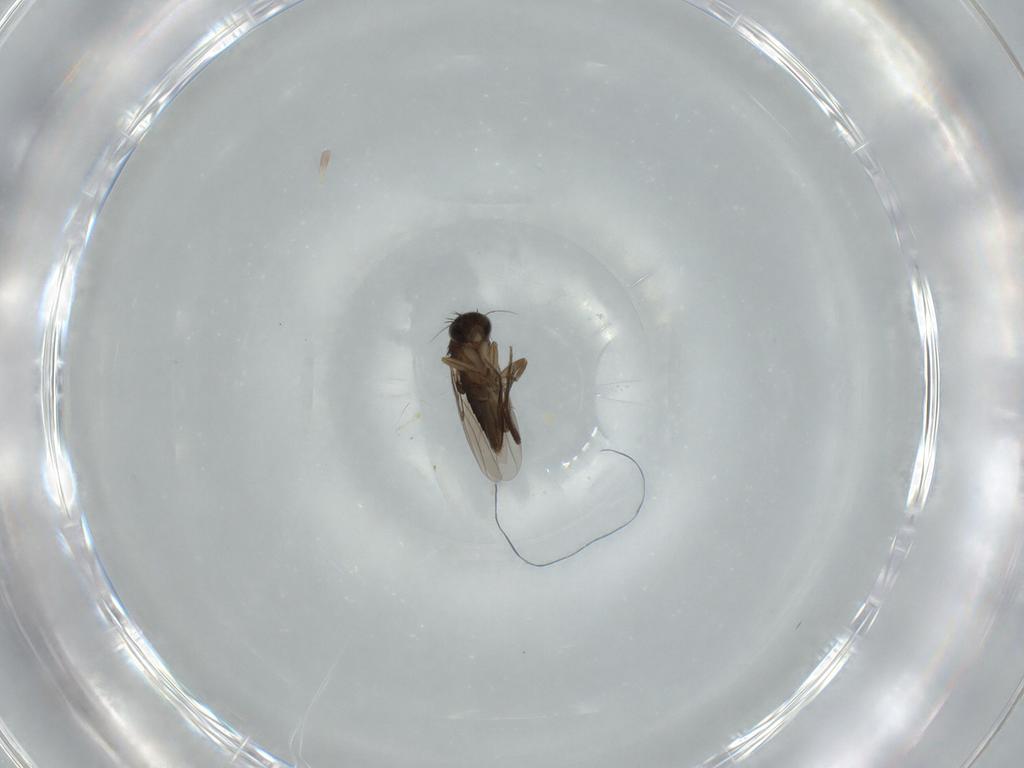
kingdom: Animalia
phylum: Arthropoda
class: Insecta
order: Diptera
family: Phoridae
